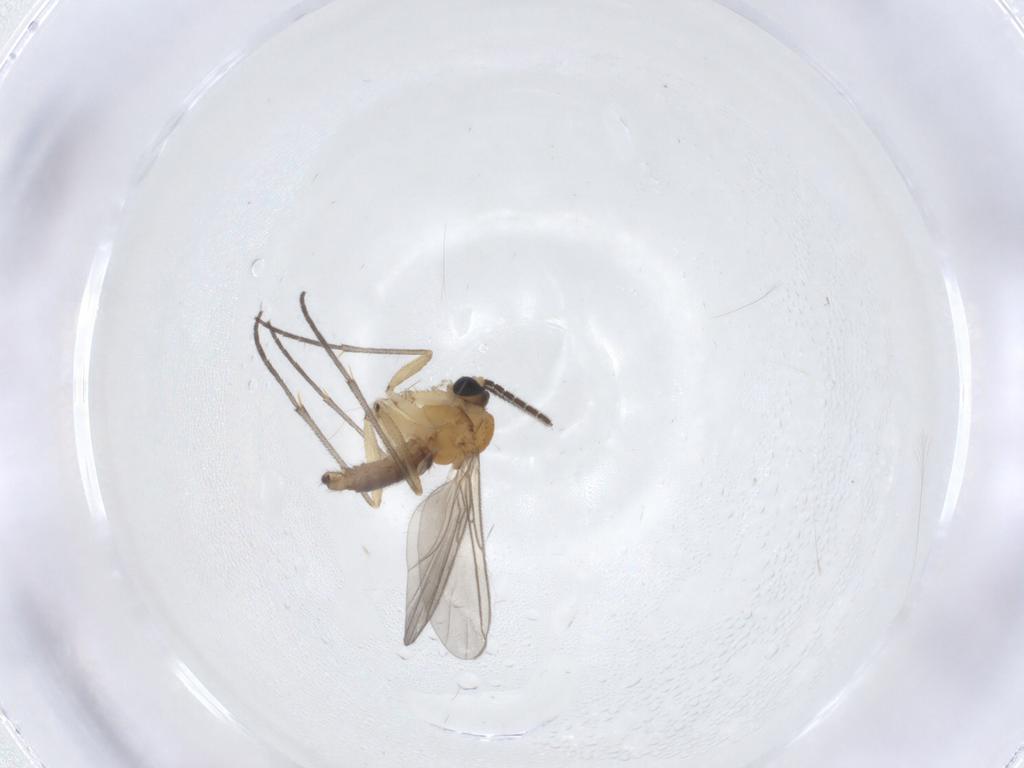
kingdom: Animalia
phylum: Arthropoda
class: Insecta
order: Diptera
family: Sciaridae
